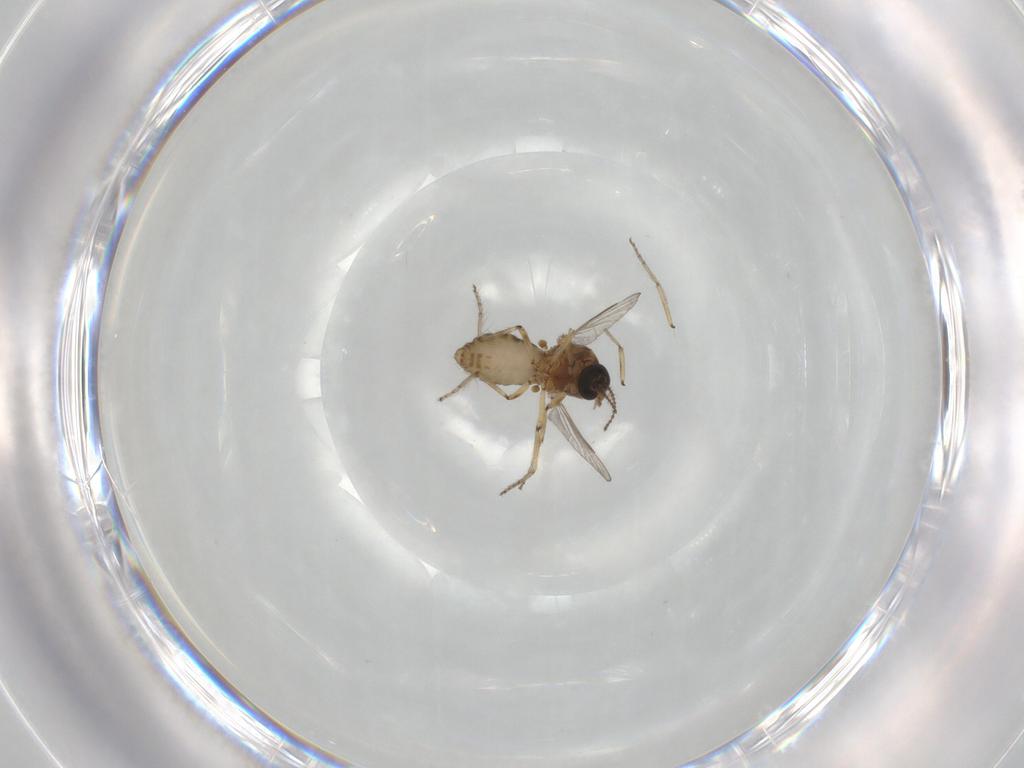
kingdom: Animalia
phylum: Arthropoda
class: Insecta
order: Diptera
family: Ceratopogonidae
